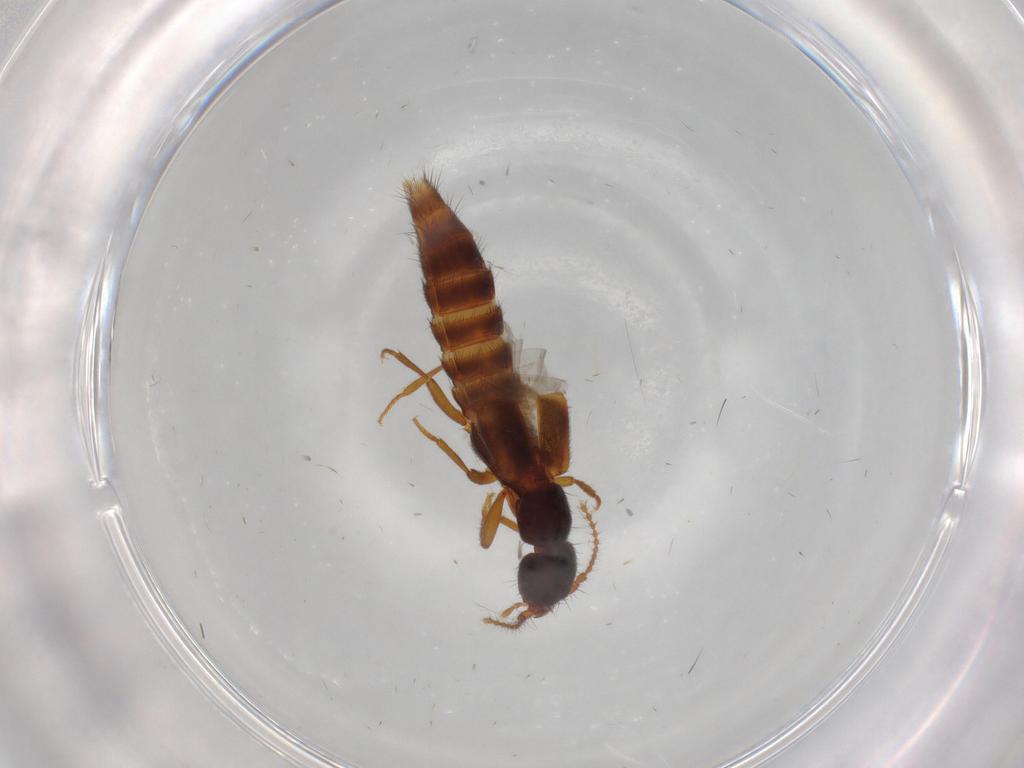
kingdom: Animalia
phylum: Arthropoda
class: Insecta
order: Coleoptera
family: Staphylinidae
